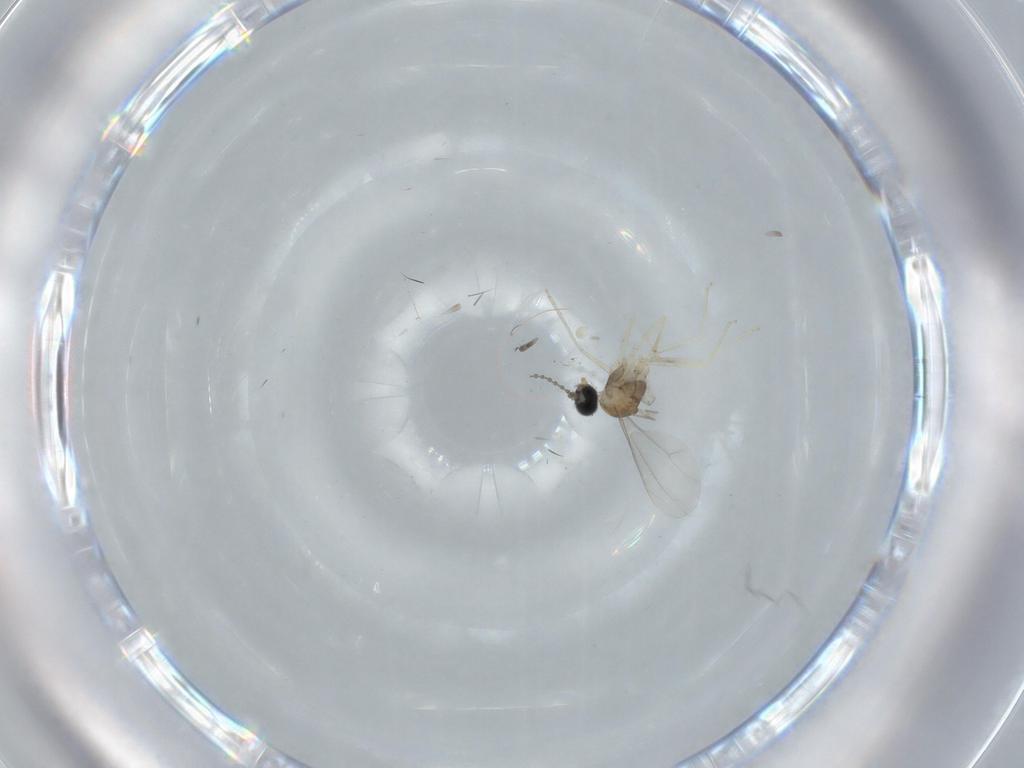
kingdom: Animalia
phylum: Arthropoda
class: Insecta
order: Diptera
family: Cecidomyiidae
